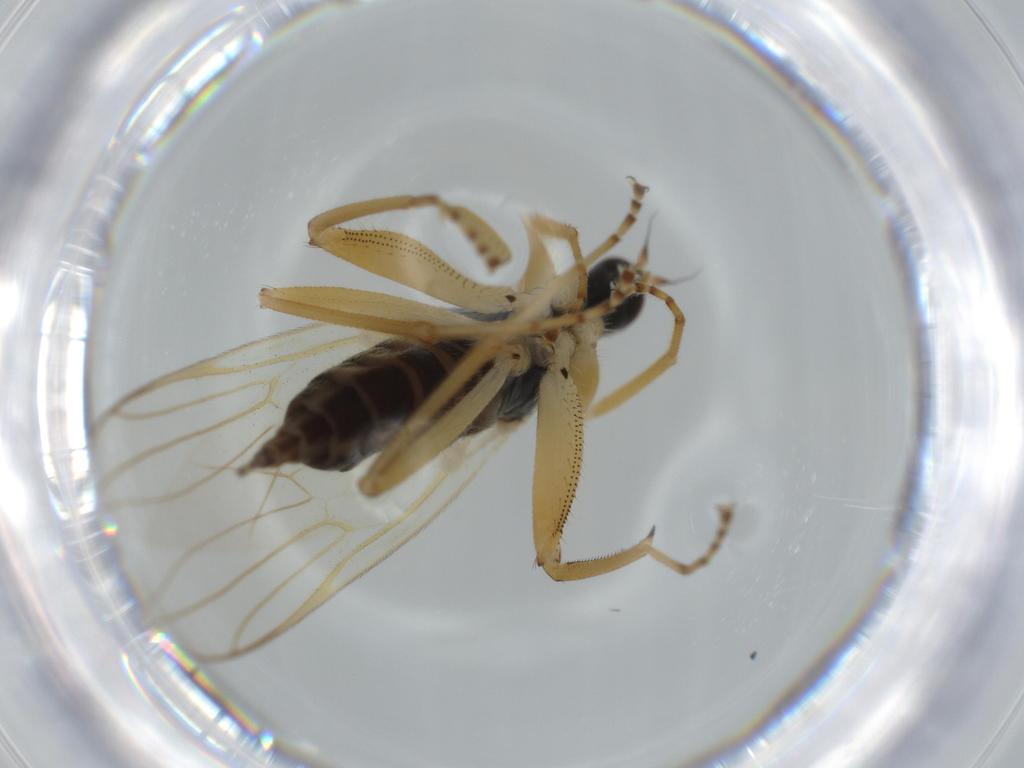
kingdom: Animalia
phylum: Arthropoda
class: Insecta
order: Diptera
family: Hybotidae
